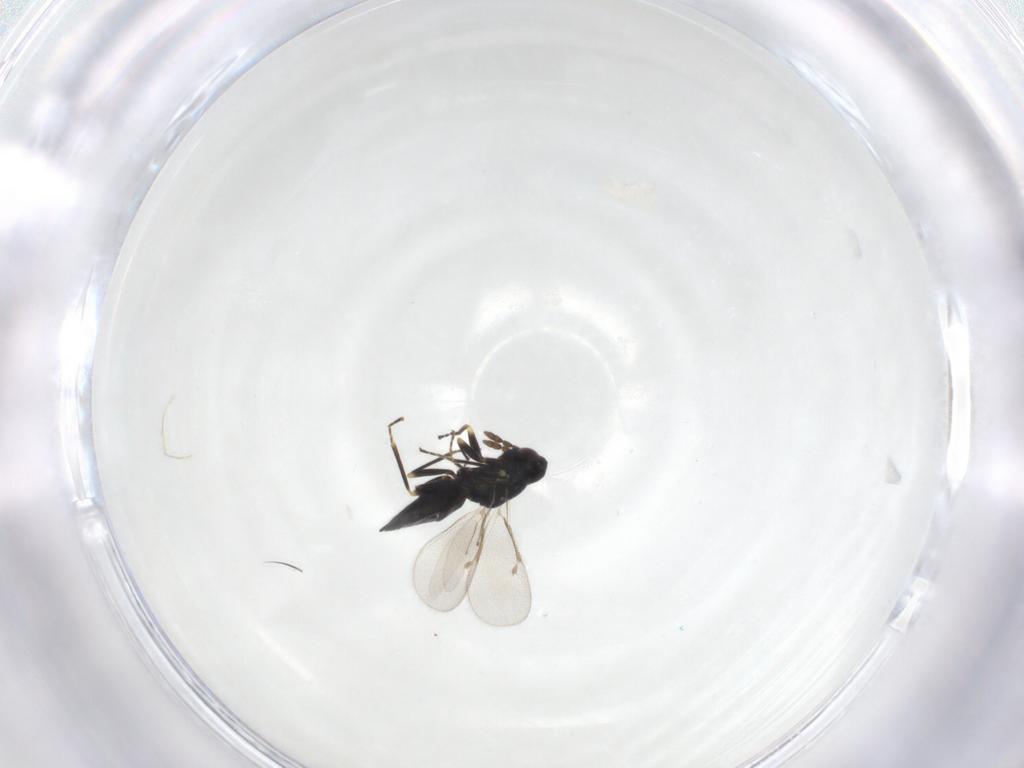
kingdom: Animalia
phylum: Arthropoda
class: Insecta
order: Hymenoptera
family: Eulophidae
